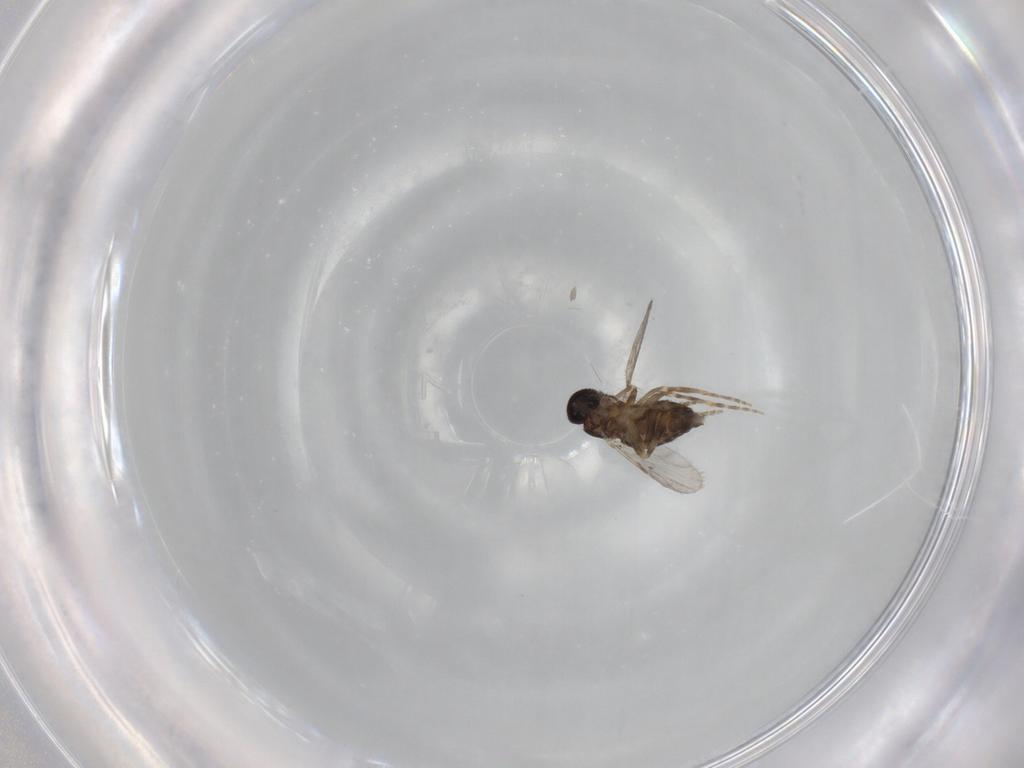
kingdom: Animalia
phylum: Arthropoda
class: Insecta
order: Diptera
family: Ceratopogonidae
